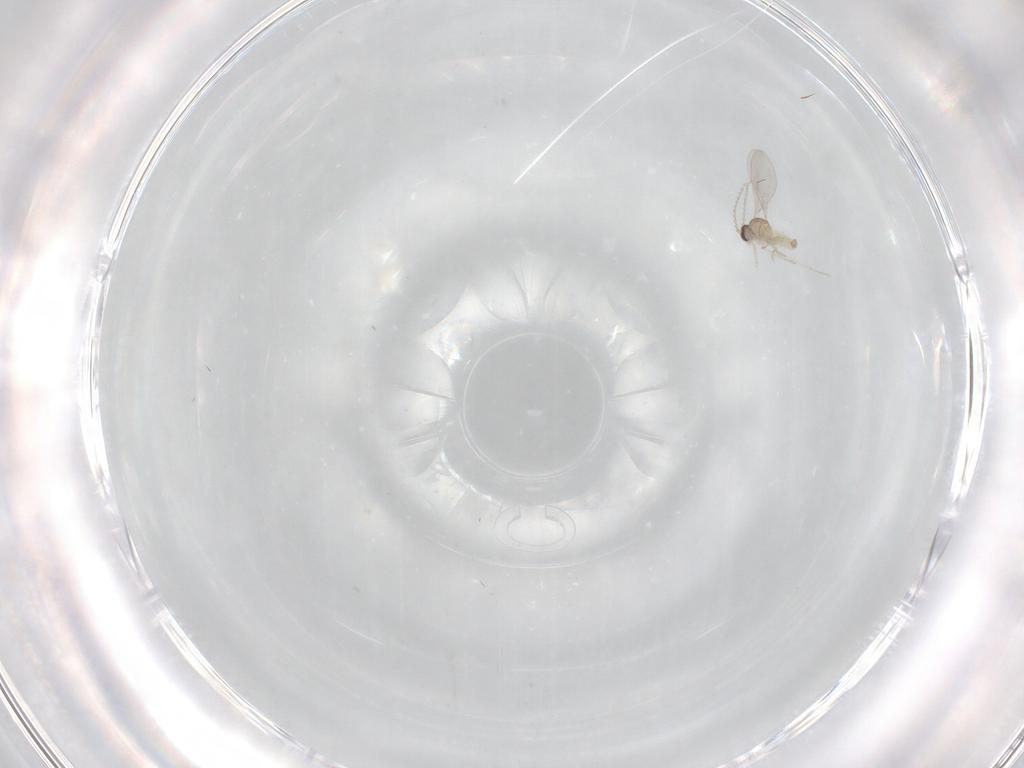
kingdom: Animalia
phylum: Arthropoda
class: Insecta
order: Diptera
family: Cecidomyiidae
